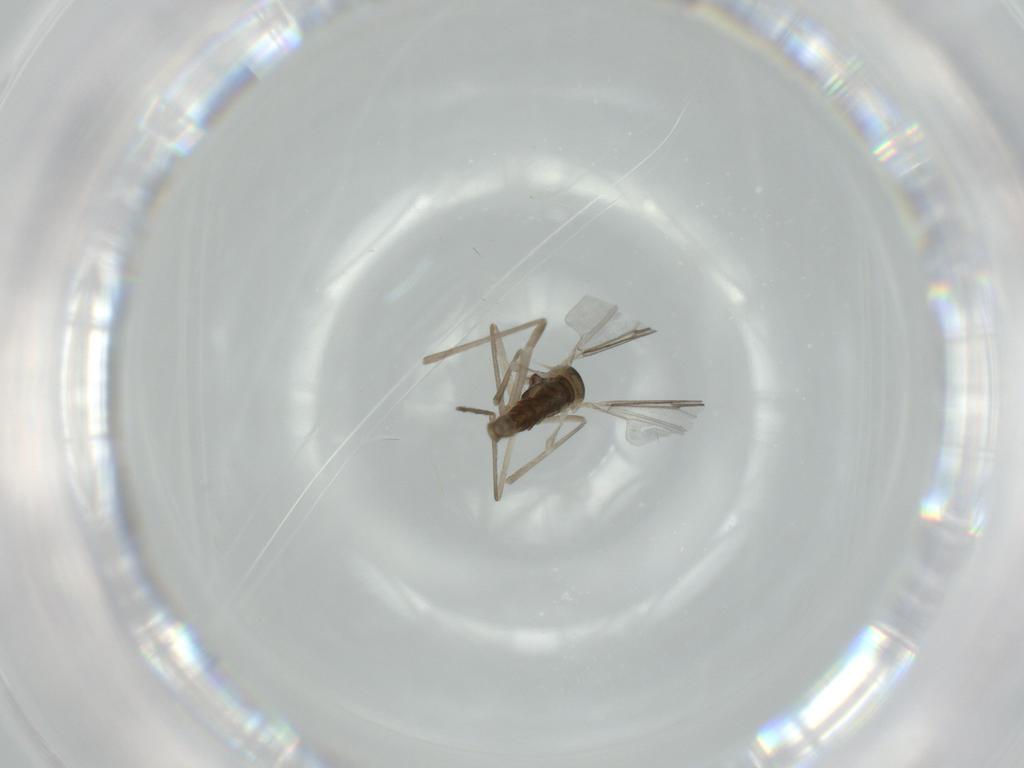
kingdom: Animalia
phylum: Arthropoda
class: Insecta
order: Diptera
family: Cecidomyiidae
